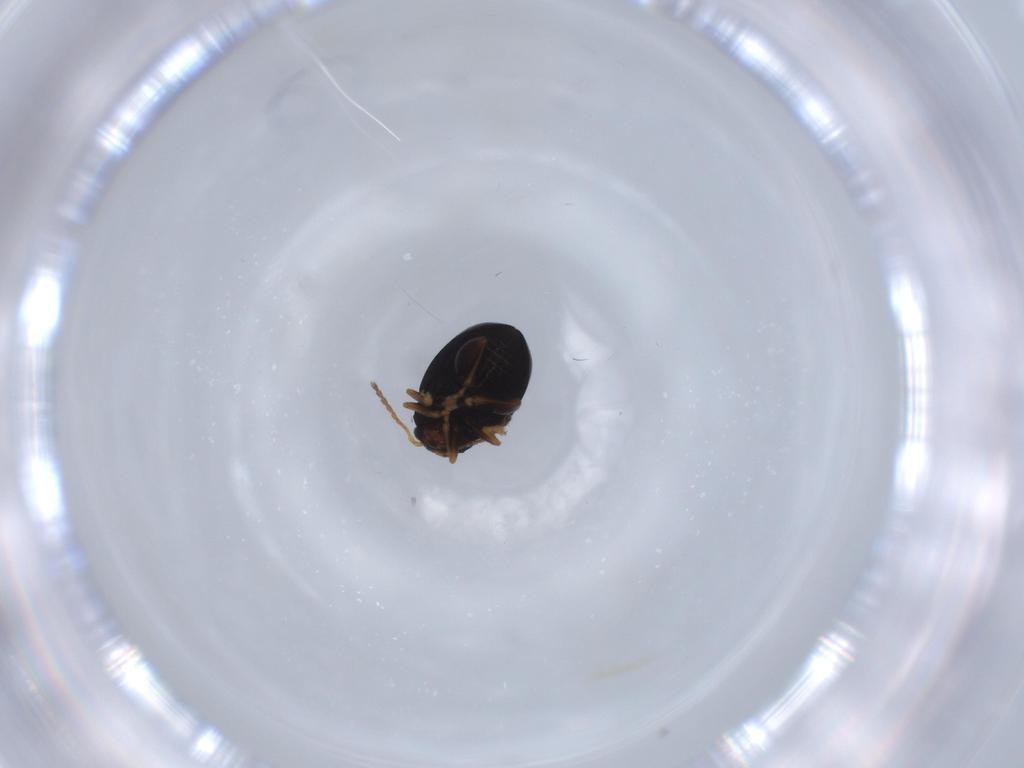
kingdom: Animalia
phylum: Arthropoda
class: Insecta
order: Coleoptera
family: Chrysomelidae
